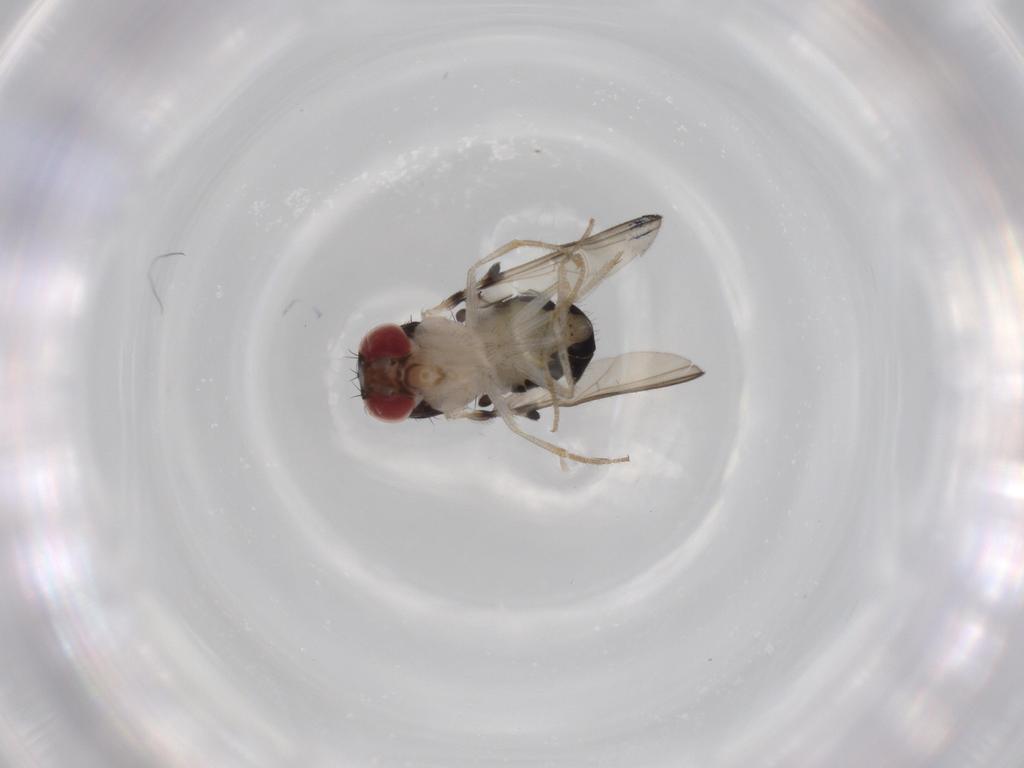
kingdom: Animalia
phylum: Arthropoda
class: Insecta
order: Diptera
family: Drosophilidae
